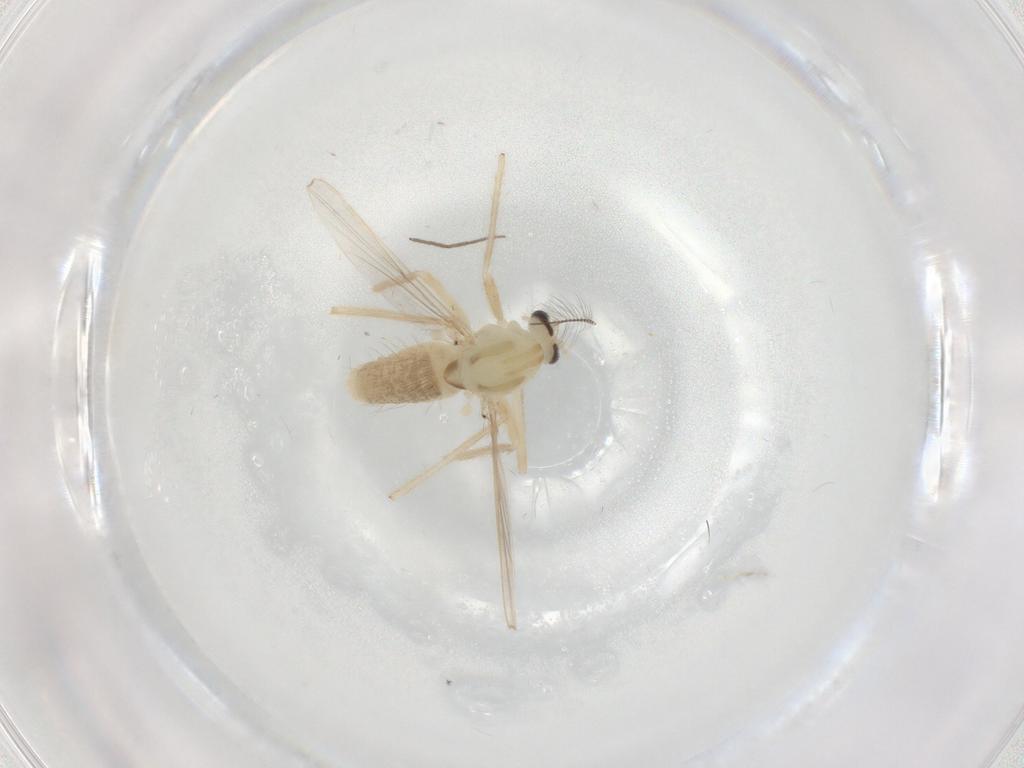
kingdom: Animalia
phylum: Arthropoda
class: Insecta
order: Diptera
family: Chironomidae
